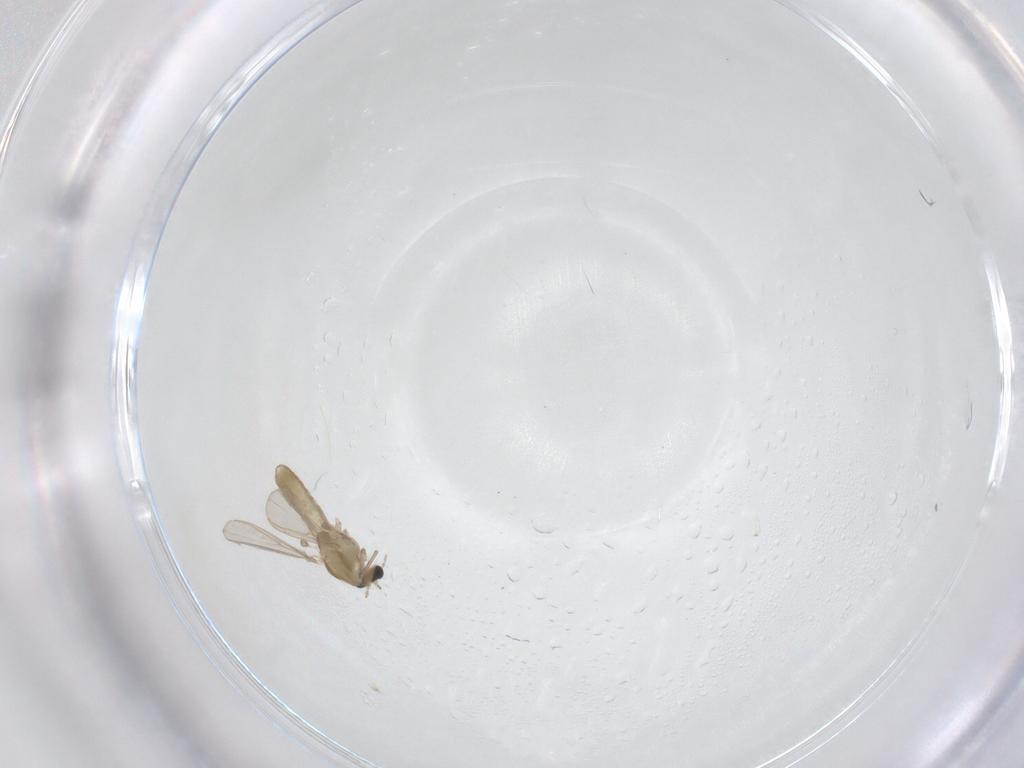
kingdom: Animalia
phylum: Arthropoda
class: Insecta
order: Diptera
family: Chironomidae
